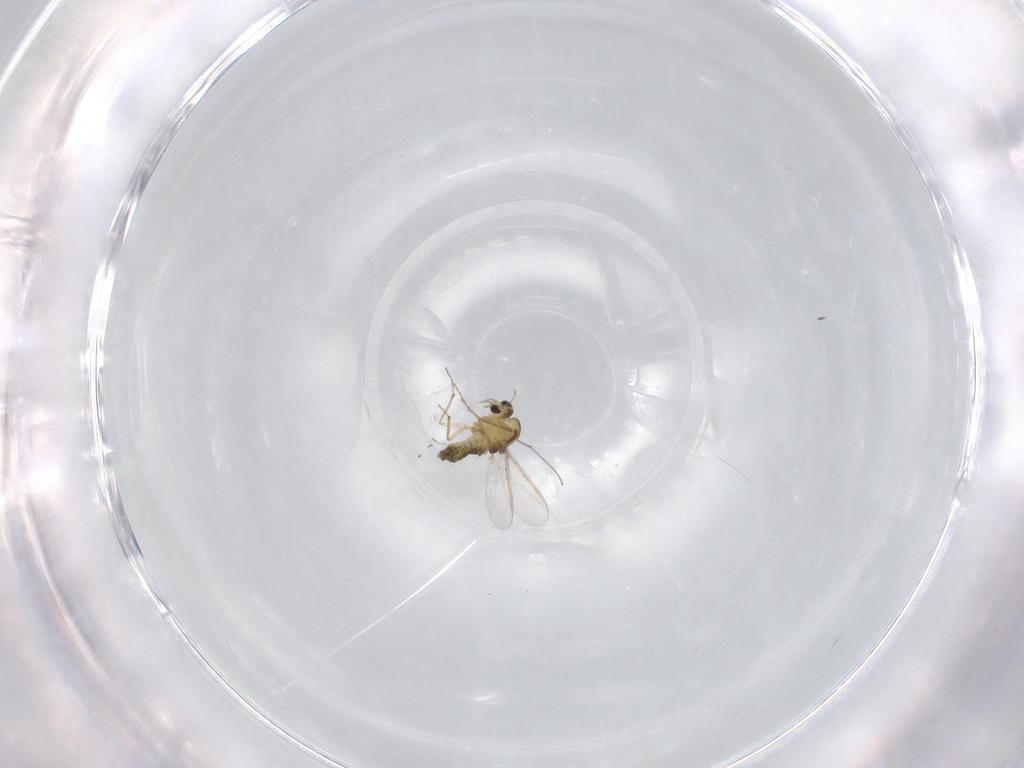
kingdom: Animalia
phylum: Arthropoda
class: Insecta
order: Diptera
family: Chironomidae
